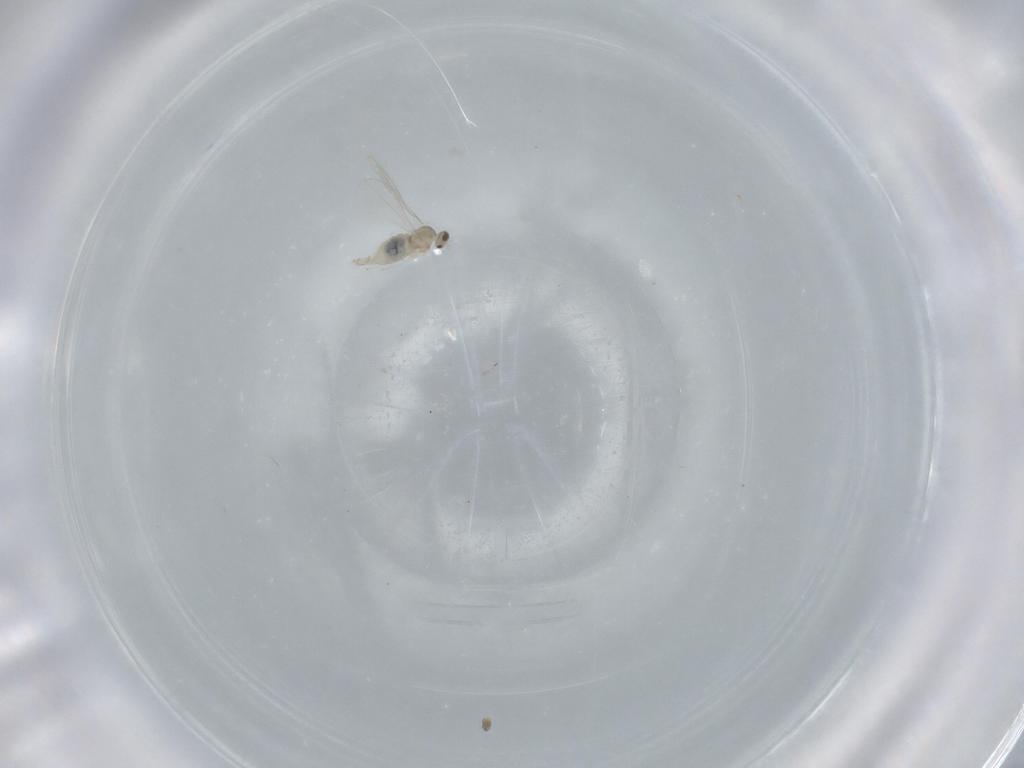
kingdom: Animalia
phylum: Arthropoda
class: Insecta
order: Diptera
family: Cecidomyiidae
